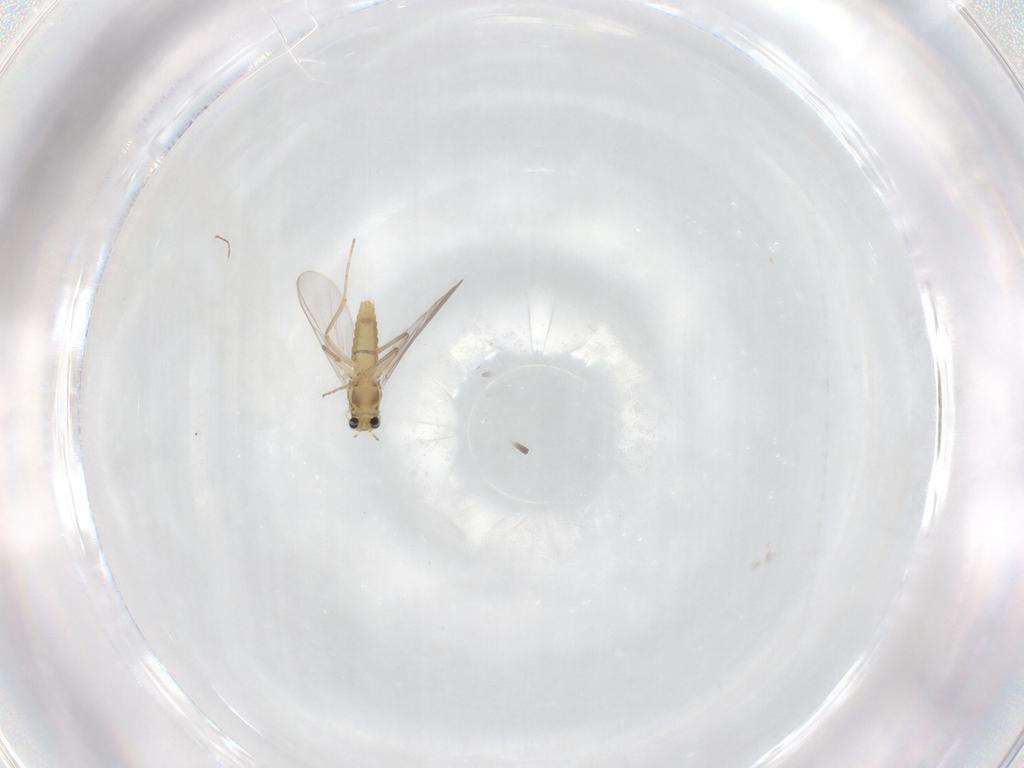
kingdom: Animalia
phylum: Arthropoda
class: Insecta
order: Diptera
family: Chironomidae
